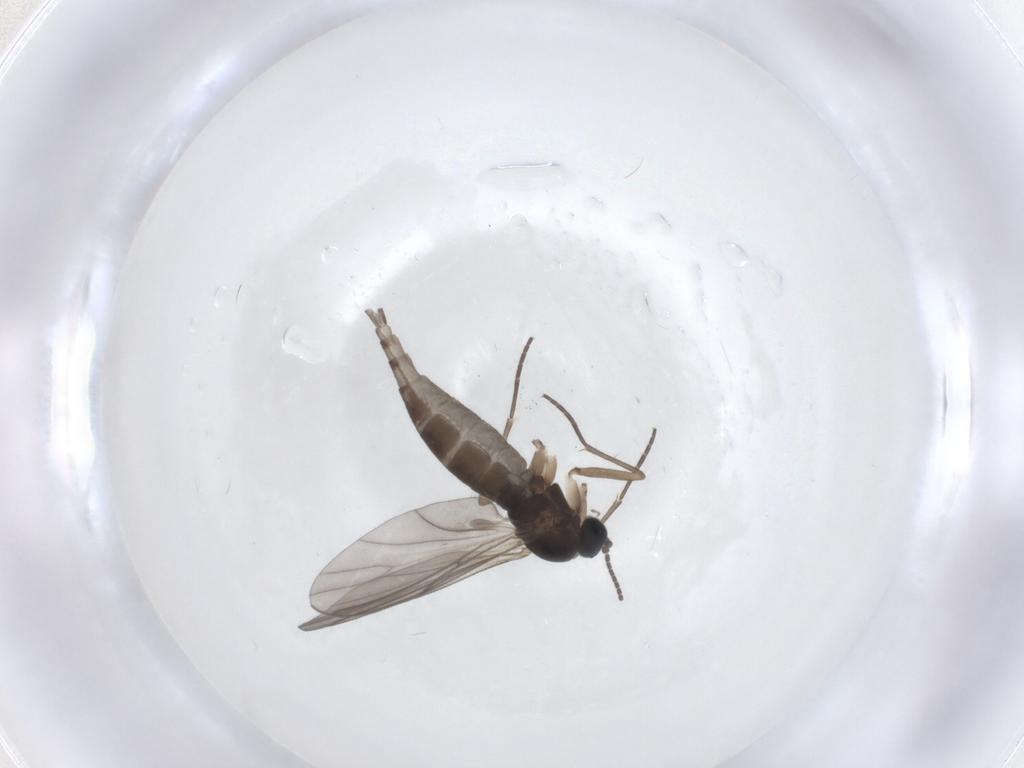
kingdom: Animalia
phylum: Arthropoda
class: Insecta
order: Diptera
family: Sciaridae
